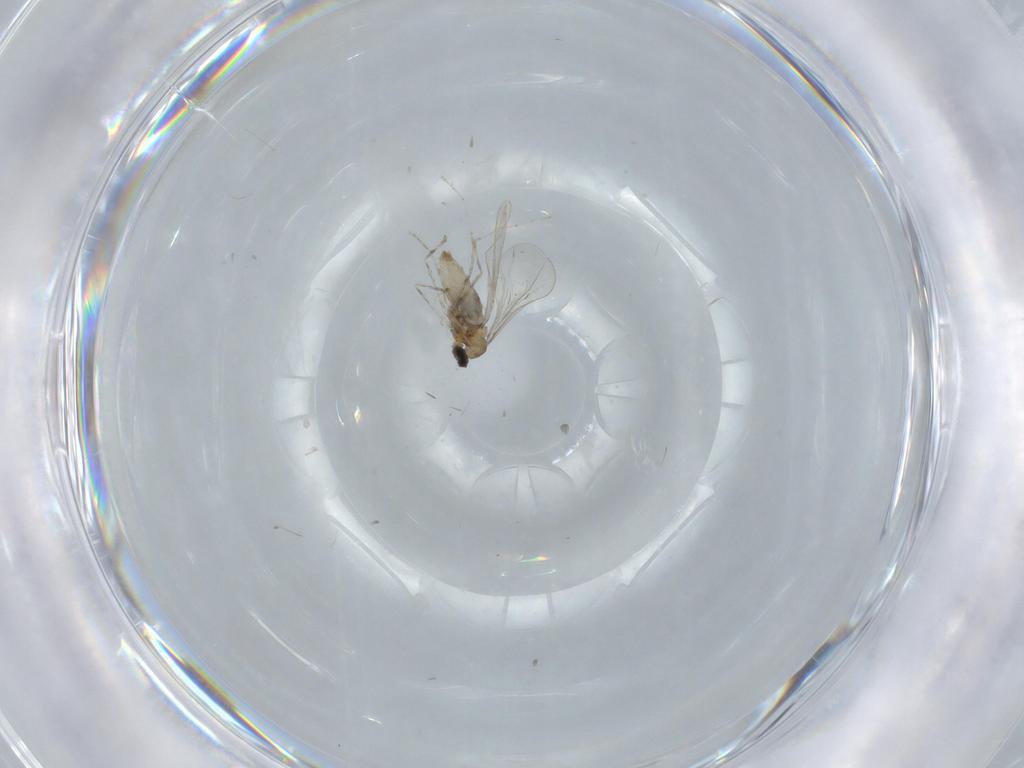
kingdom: Animalia
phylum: Arthropoda
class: Insecta
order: Diptera
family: Cecidomyiidae
